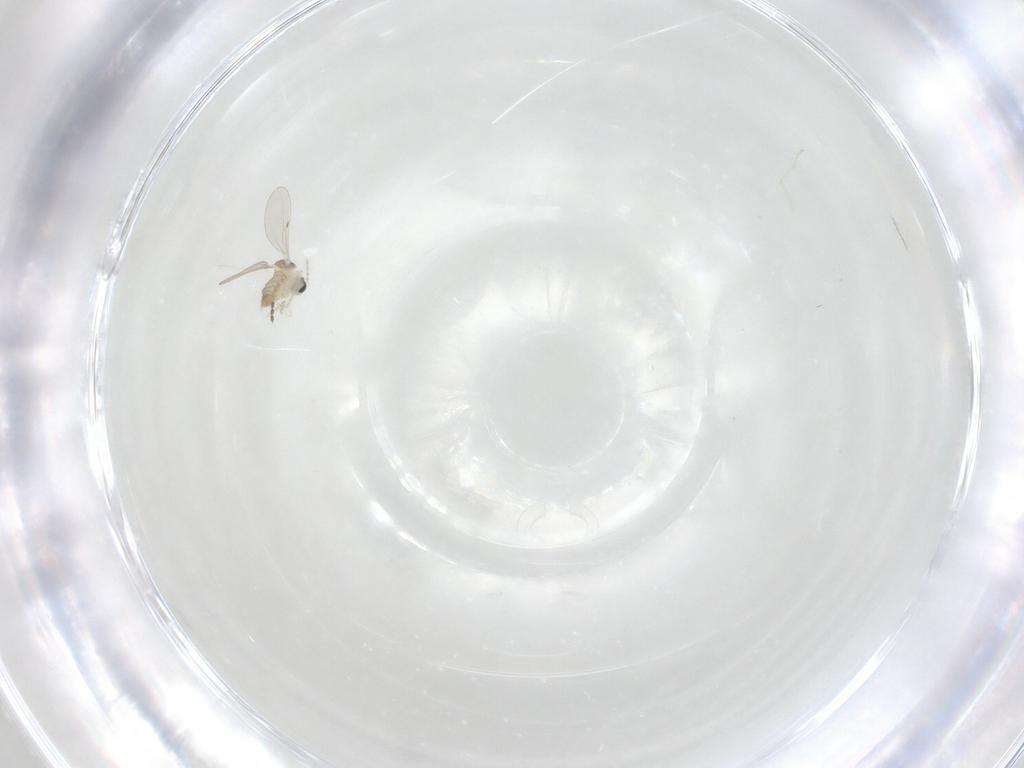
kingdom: Animalia
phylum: Arthropoda
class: Insecta
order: Diptera
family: Cecidomyiidae
